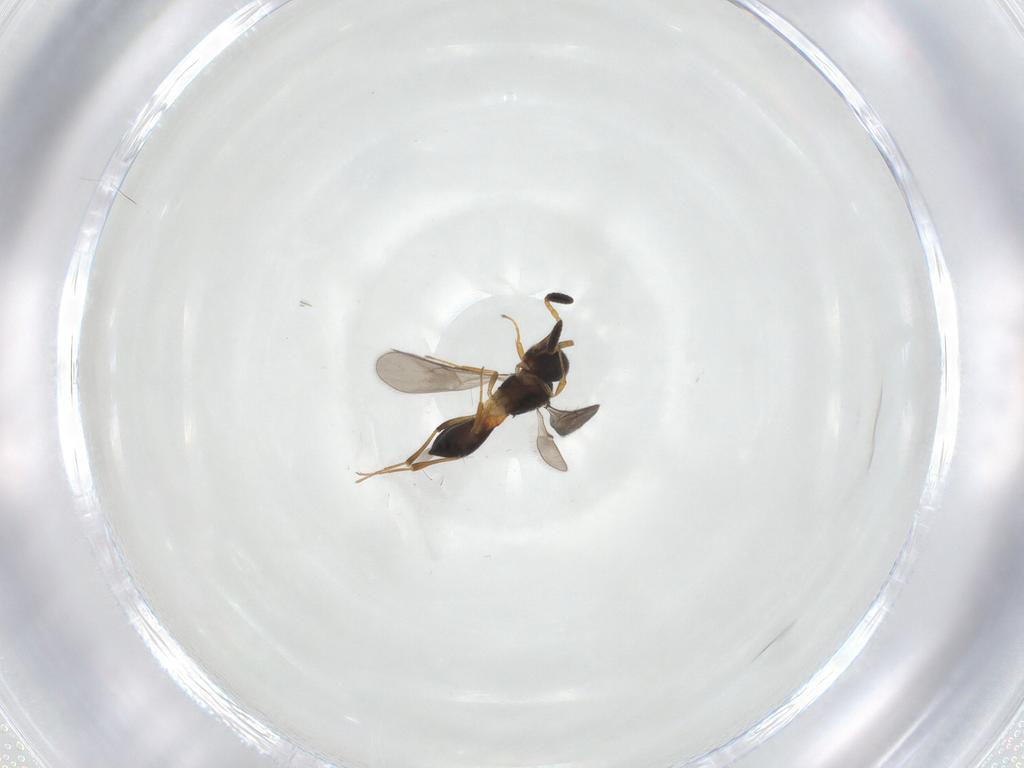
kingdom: Animalia
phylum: Arthropoda
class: Insecta
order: Hymenoptera
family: Scelionidae
